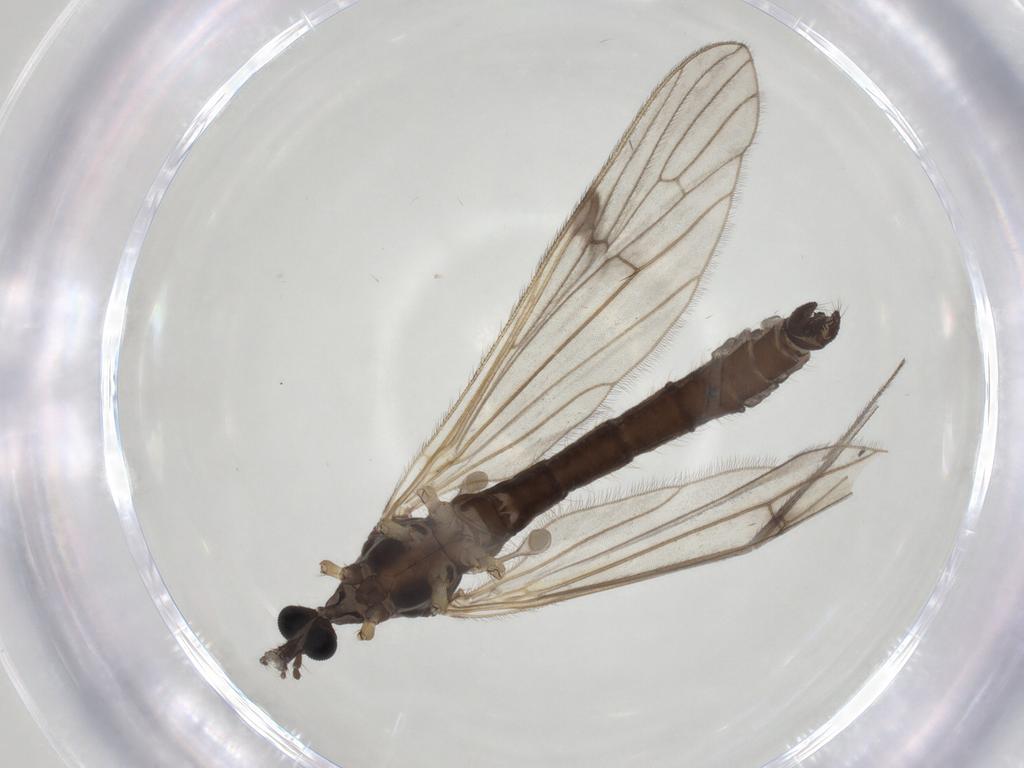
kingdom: Animalia
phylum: Arthropoda
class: Insecta
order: Diptera
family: Limoniidae
